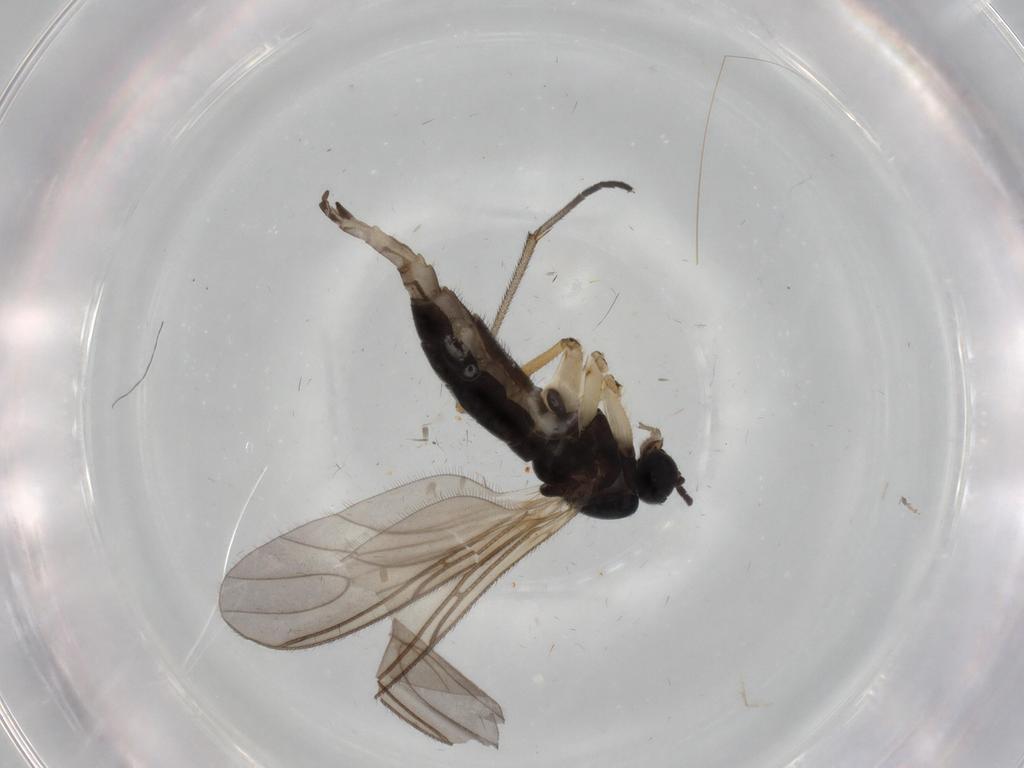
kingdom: Animalia
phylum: Arthropoda
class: Insecta
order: Diptera
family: Sciaridae
